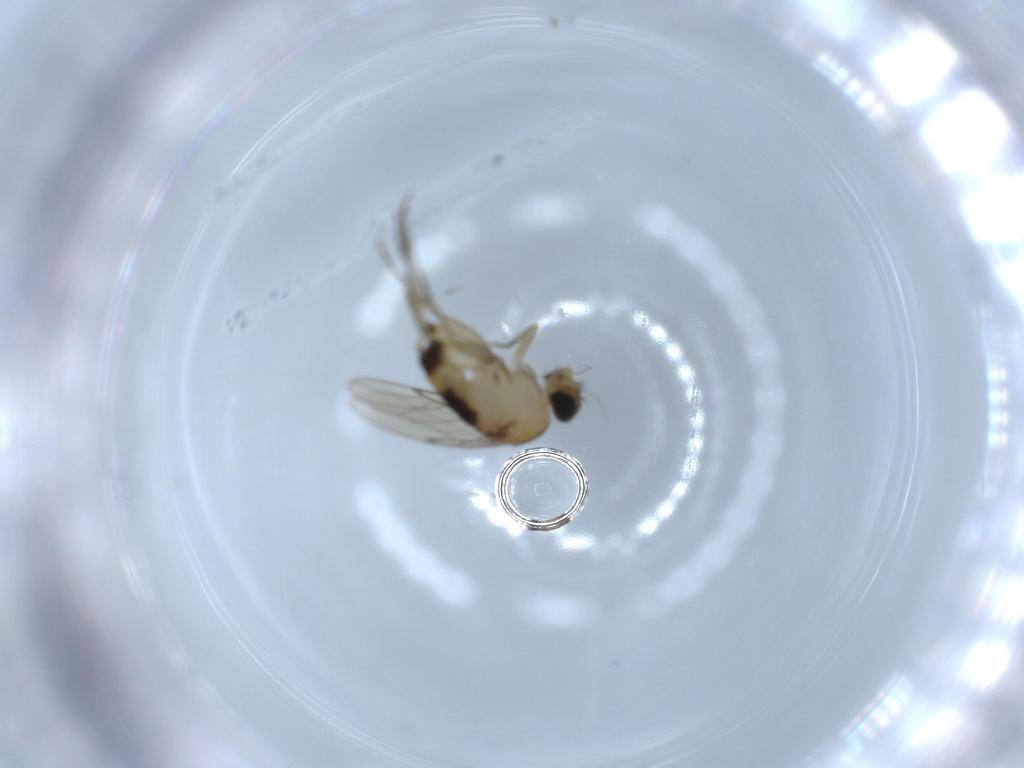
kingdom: Animalia
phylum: Arthropoda
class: Insecta
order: Diptera
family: Phoridae
